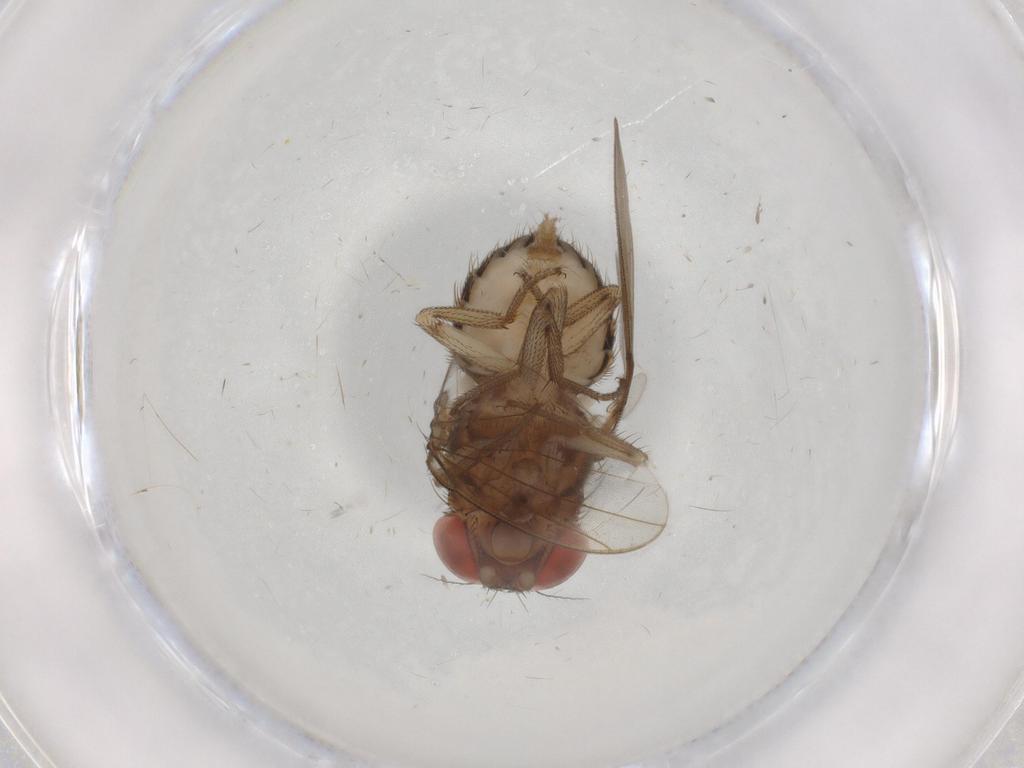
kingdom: Animalia
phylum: Arthropoda
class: Insecta
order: Diptera
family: Drosophilidae
